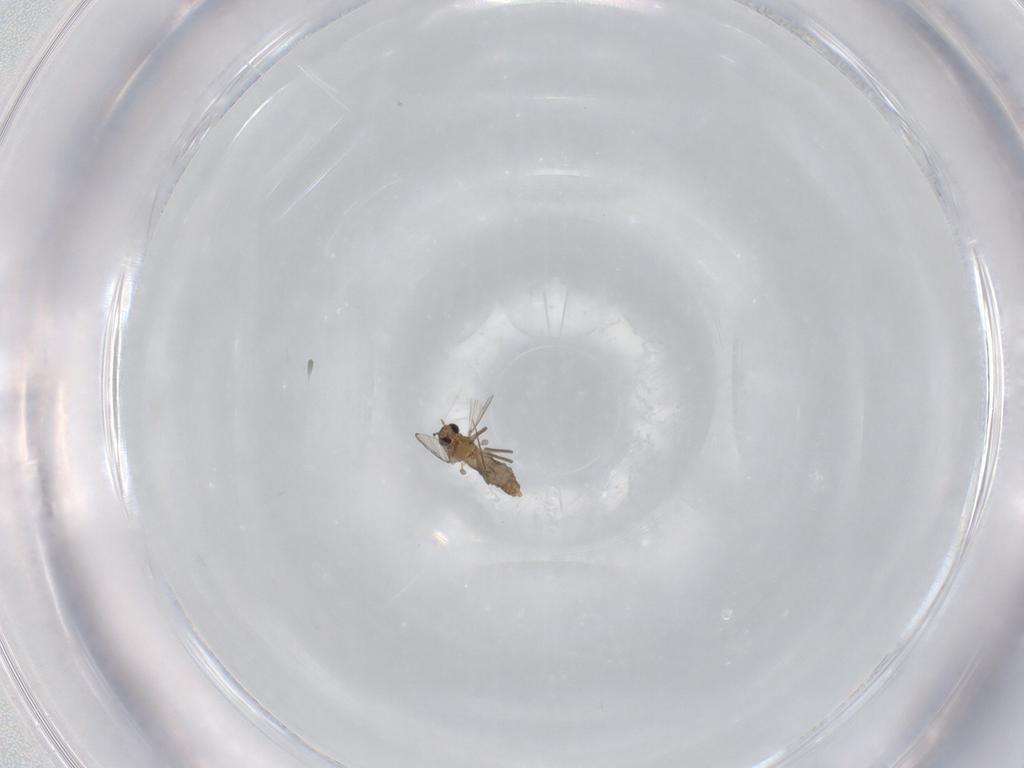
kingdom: Animalia
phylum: Arthropoda
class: Insecta
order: Diptera
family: Chironomidae
